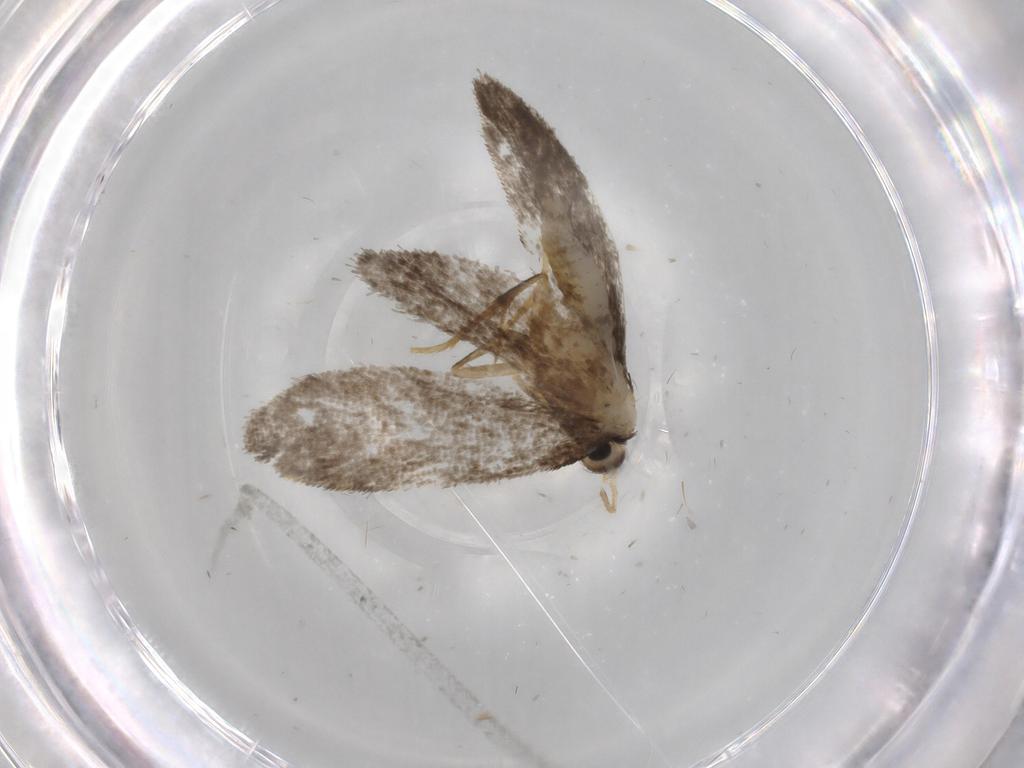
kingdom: Animalia
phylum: Arthropoda
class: Insecta
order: Lepidoptera
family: Psychidae
